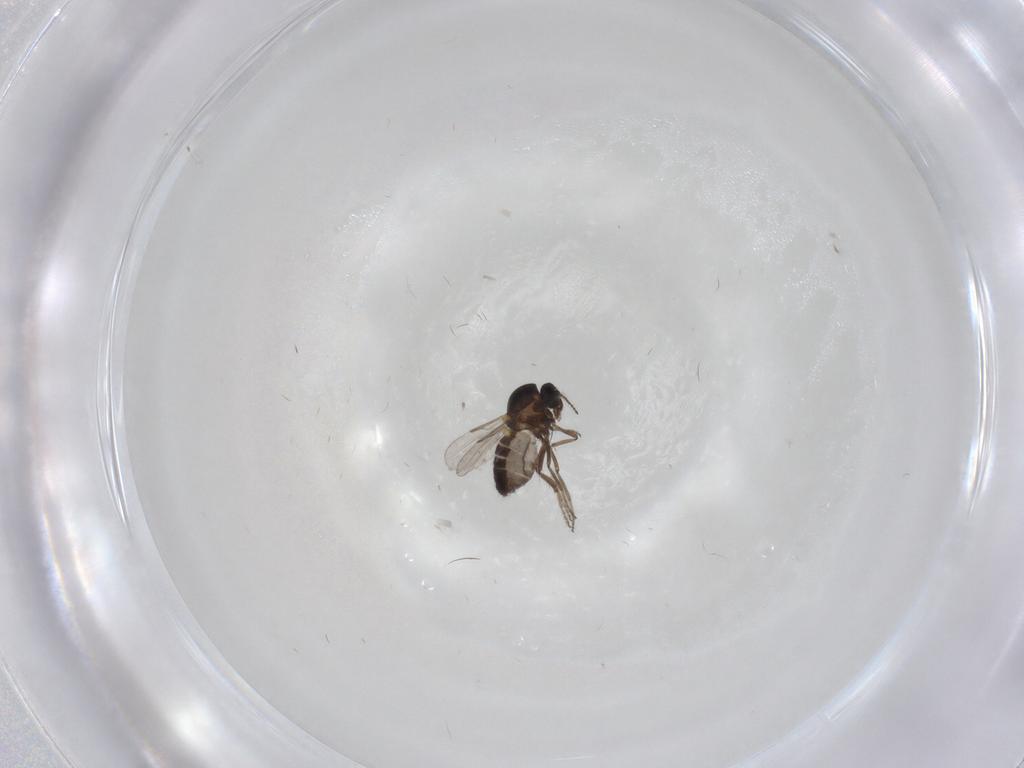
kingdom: Animalia
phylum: Arthropoda
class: Insecta
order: Diptera
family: Ceratopogonidae
